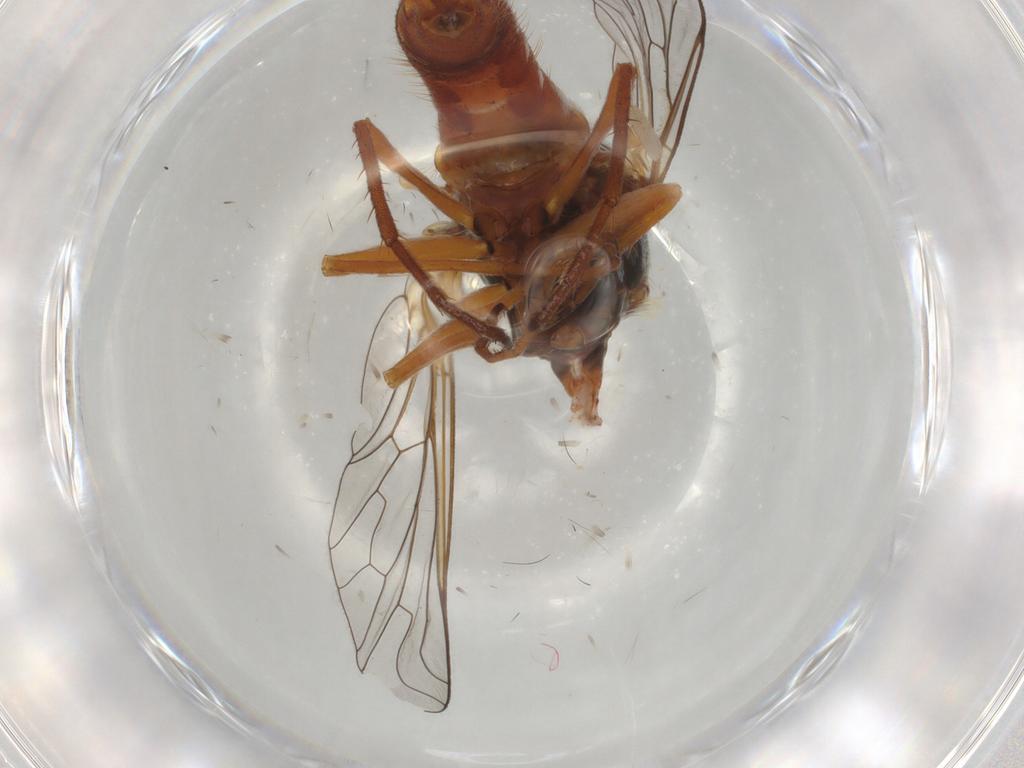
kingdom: Animalia
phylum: Arthropoda
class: Insecta
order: Diptera
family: Bombyliidae
